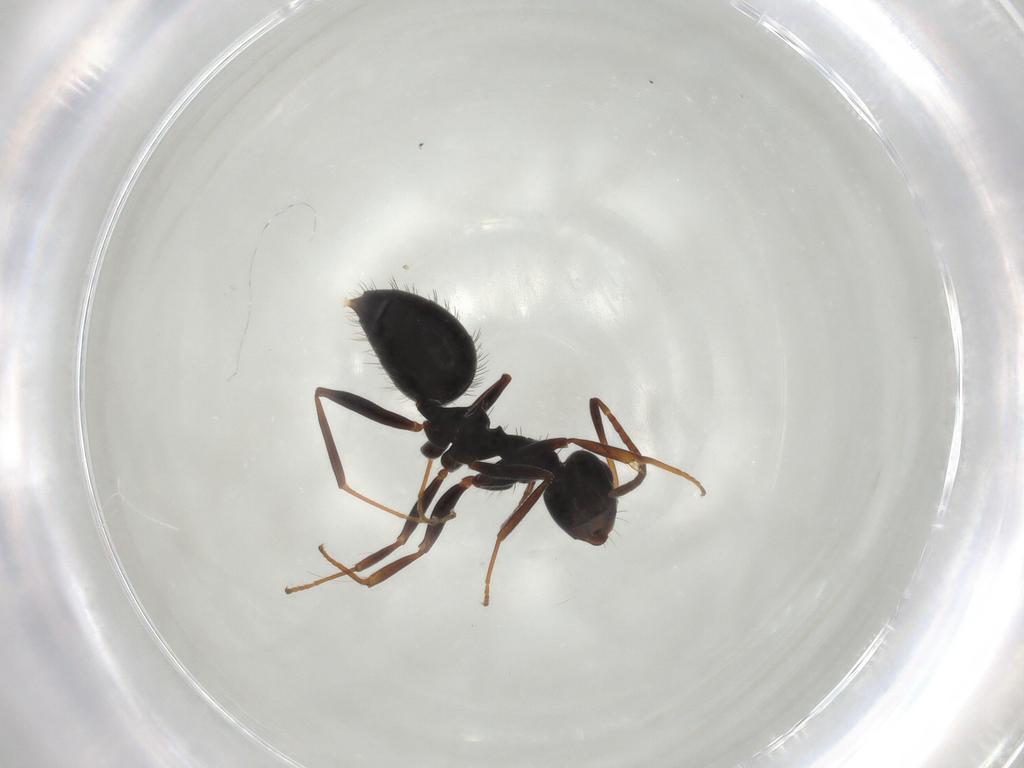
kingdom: Animalia
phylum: Arthropoda
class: Insecta
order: Hymenoptera
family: Formicidae
